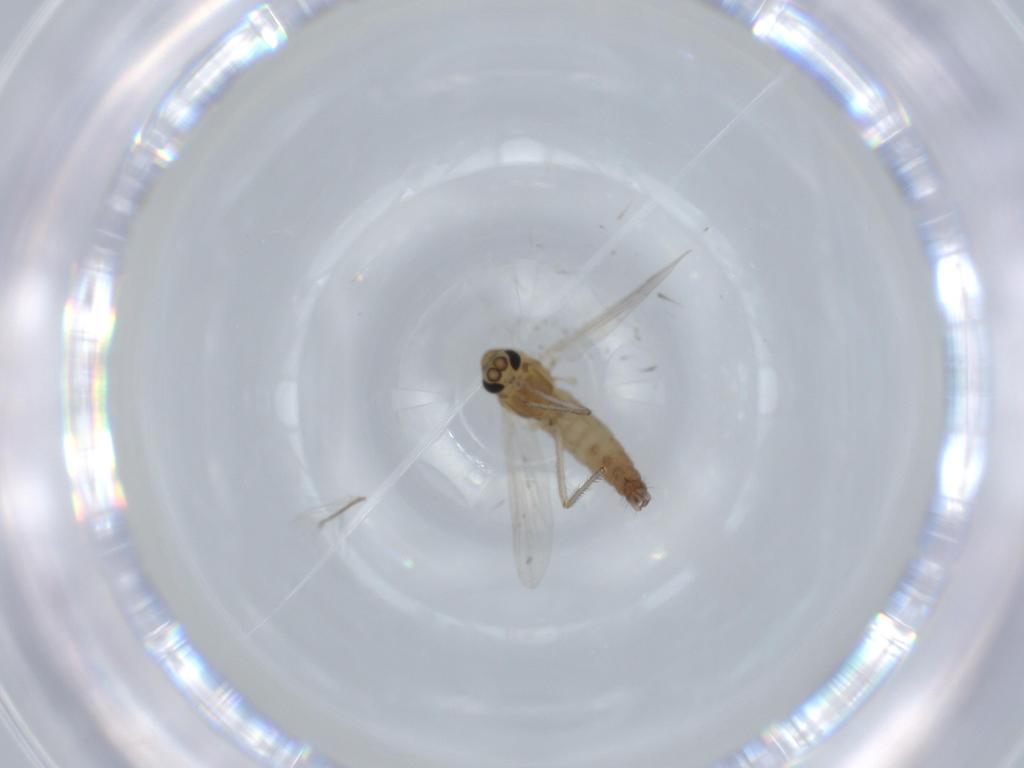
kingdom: Animalia
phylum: Arthropoda
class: Insecta
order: Diptera
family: Chironomidae
